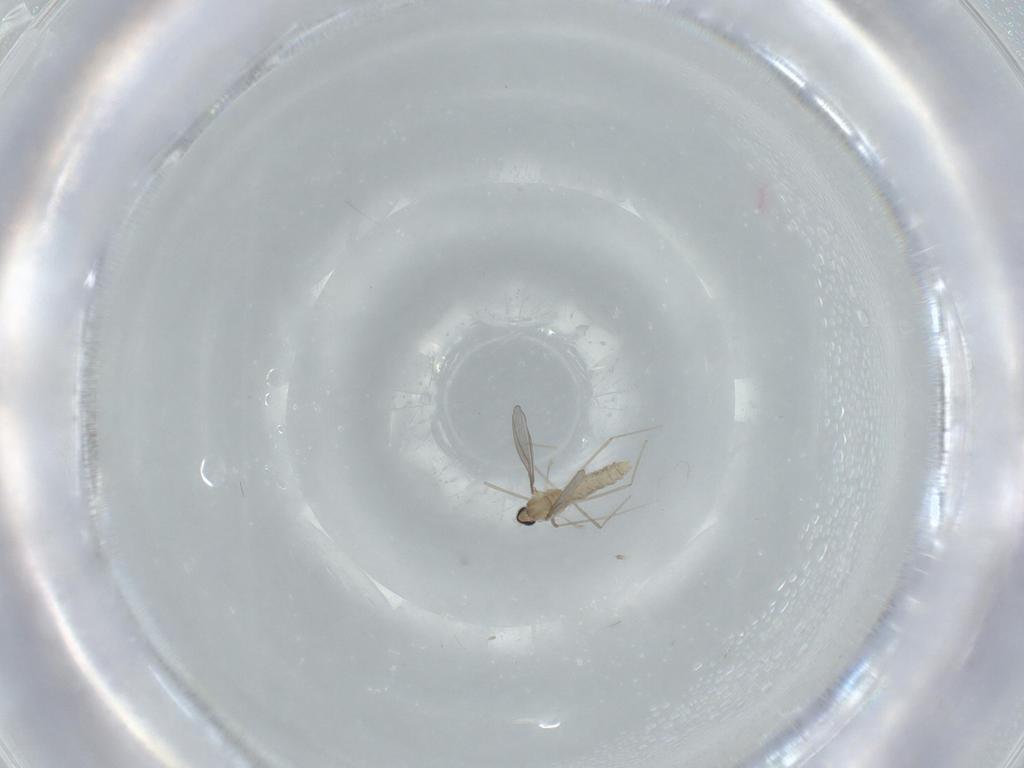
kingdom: Animalia
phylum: Arthropoda
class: Insecta
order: Diptera
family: Cecidomyiidae
